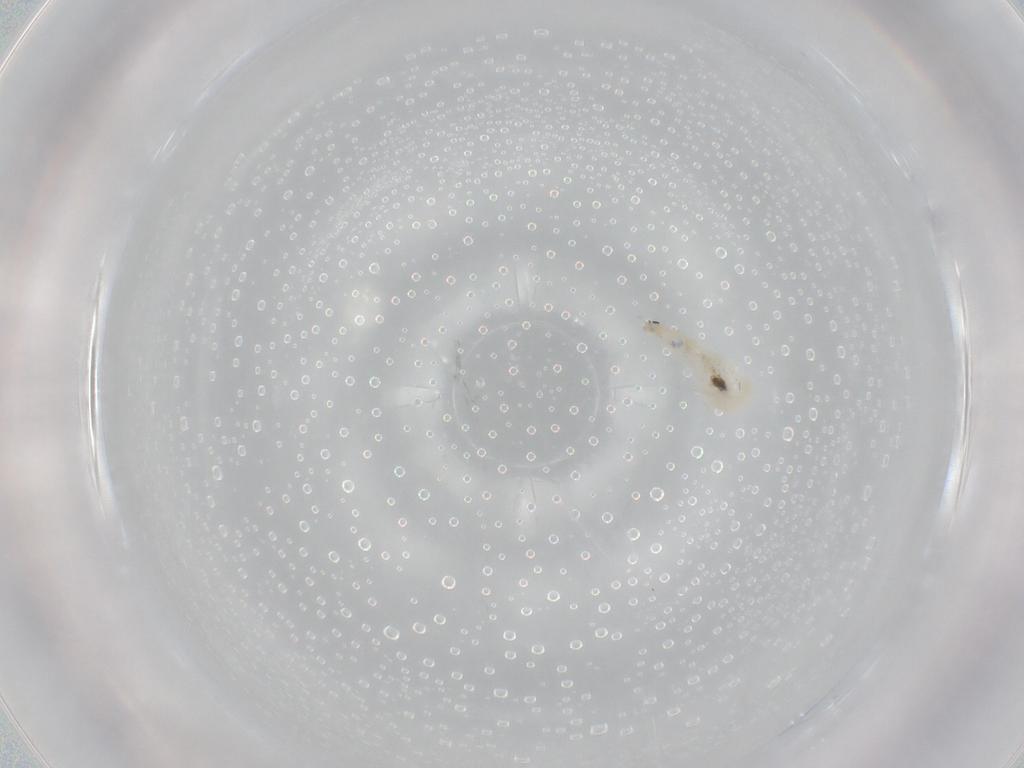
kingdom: Animalia
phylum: Arthropoda
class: Collembola
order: Entomobryomorpha
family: Entomobryidae
